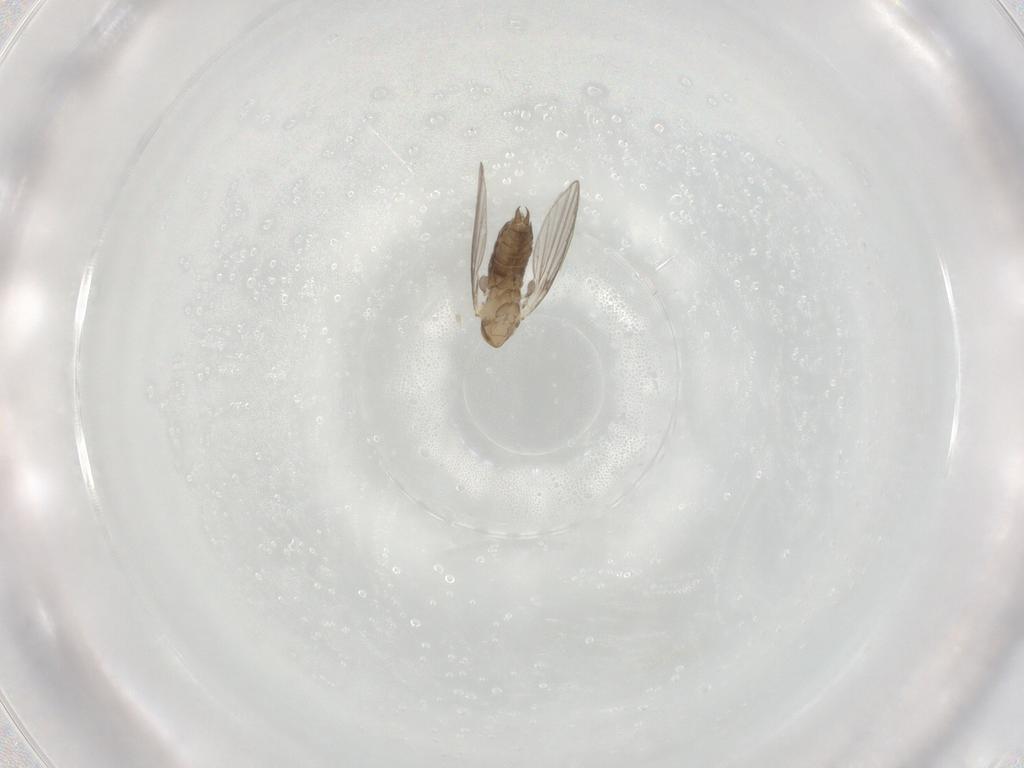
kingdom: Animalia
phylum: Arthropoda
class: Insecta
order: Diptera
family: Psychodidae
